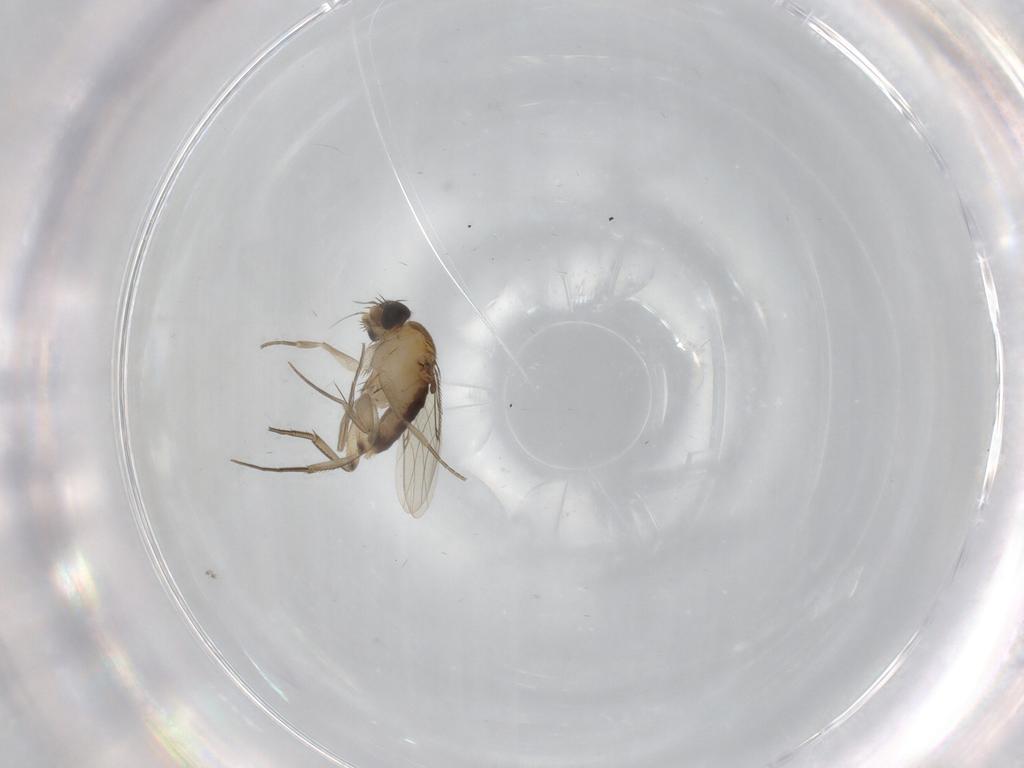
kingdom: Animalia
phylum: Arthropoda
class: Insecta
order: Diptera
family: Phoridae
